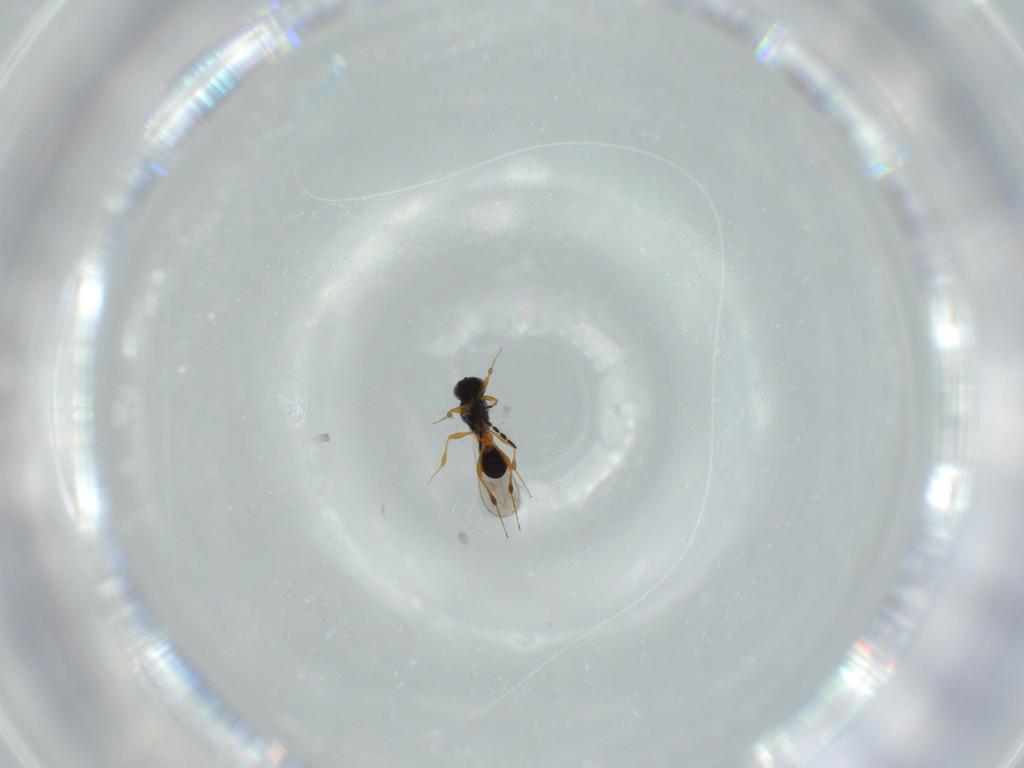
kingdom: Animalia
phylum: Arthropoda
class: Insecta
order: Hymenoptera
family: Platygastridae
